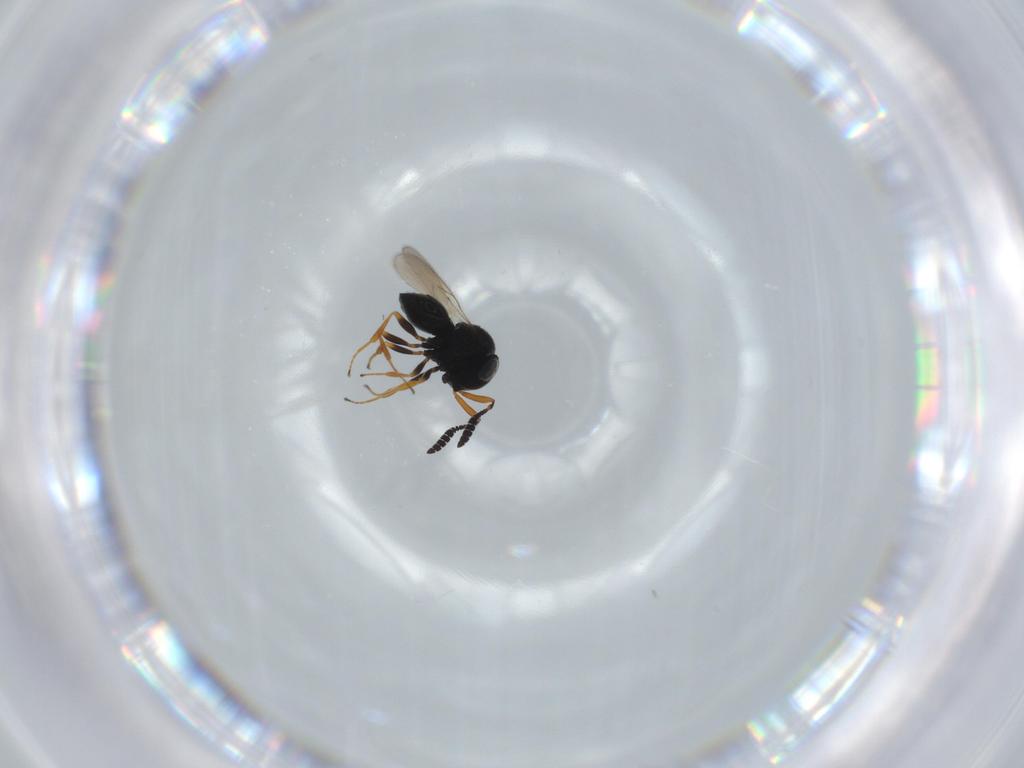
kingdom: Animalia
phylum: Arthropoda
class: Insecta
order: Hymenoptera
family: Scelionidae
